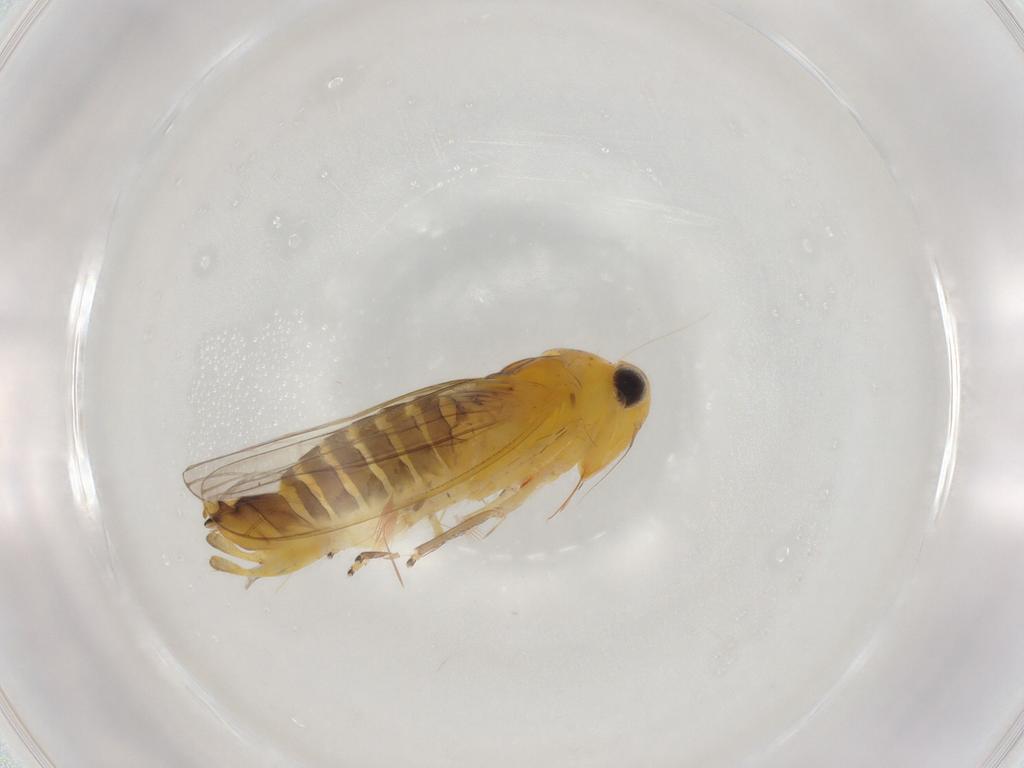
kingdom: Animalia
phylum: Arthropoda
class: Insecta
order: Hemiptera
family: Cicadellidae
